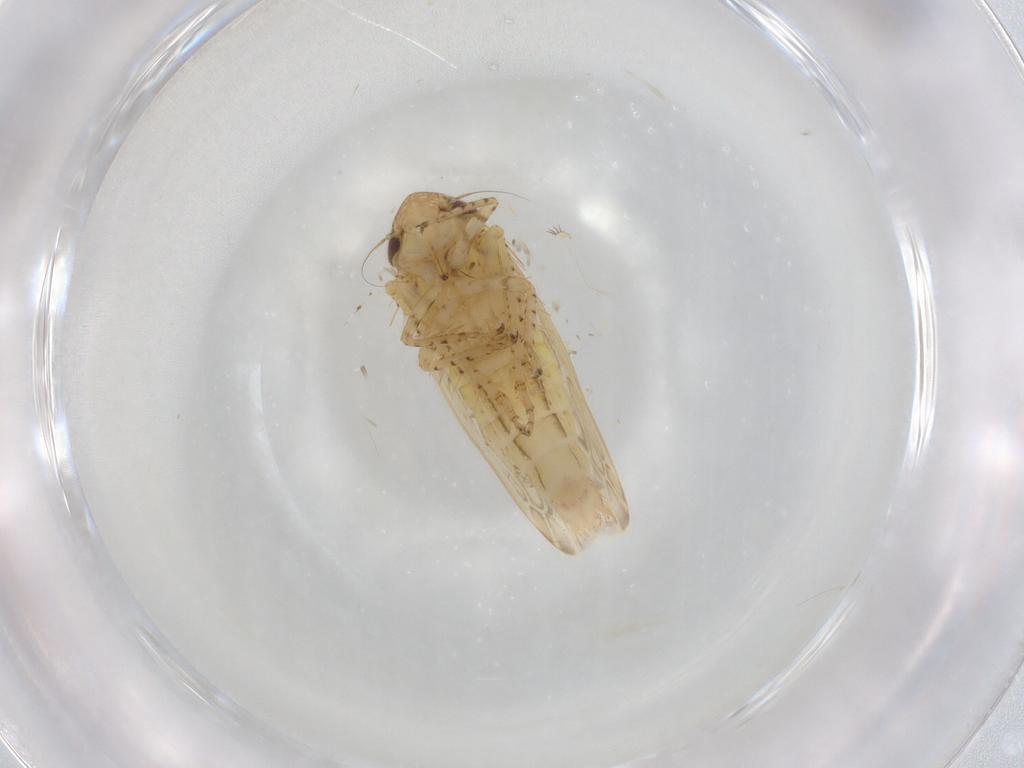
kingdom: Animalia
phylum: Arthropoda
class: Insecta
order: Hemiptera
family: Cicadellidae
